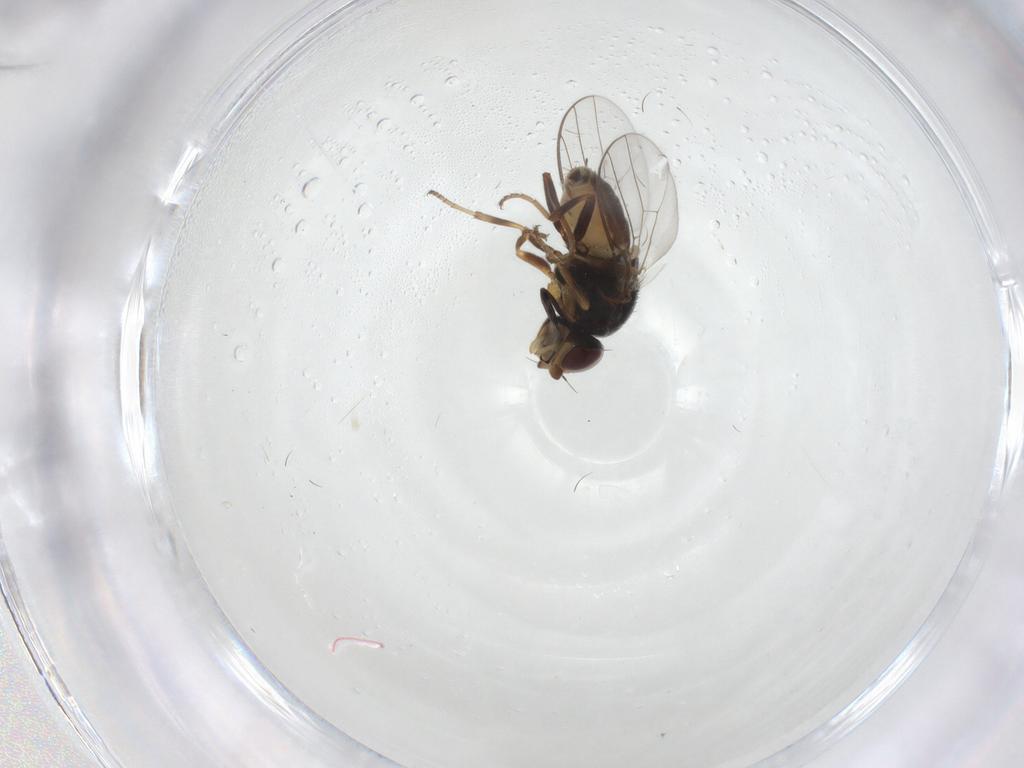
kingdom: Animalia
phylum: Arthropoda
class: Insecta
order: Diptera
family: Chloropidae
